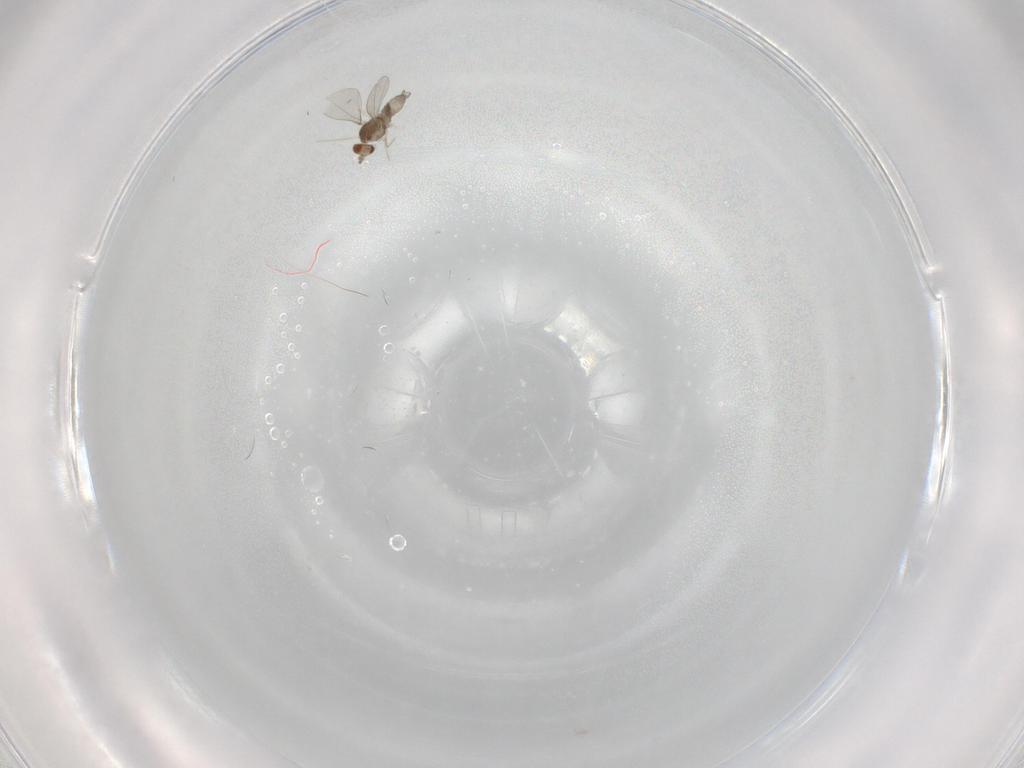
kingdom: Animalia
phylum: Arthropoda
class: Insecta
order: Diptera
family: Cecidomyiidae
